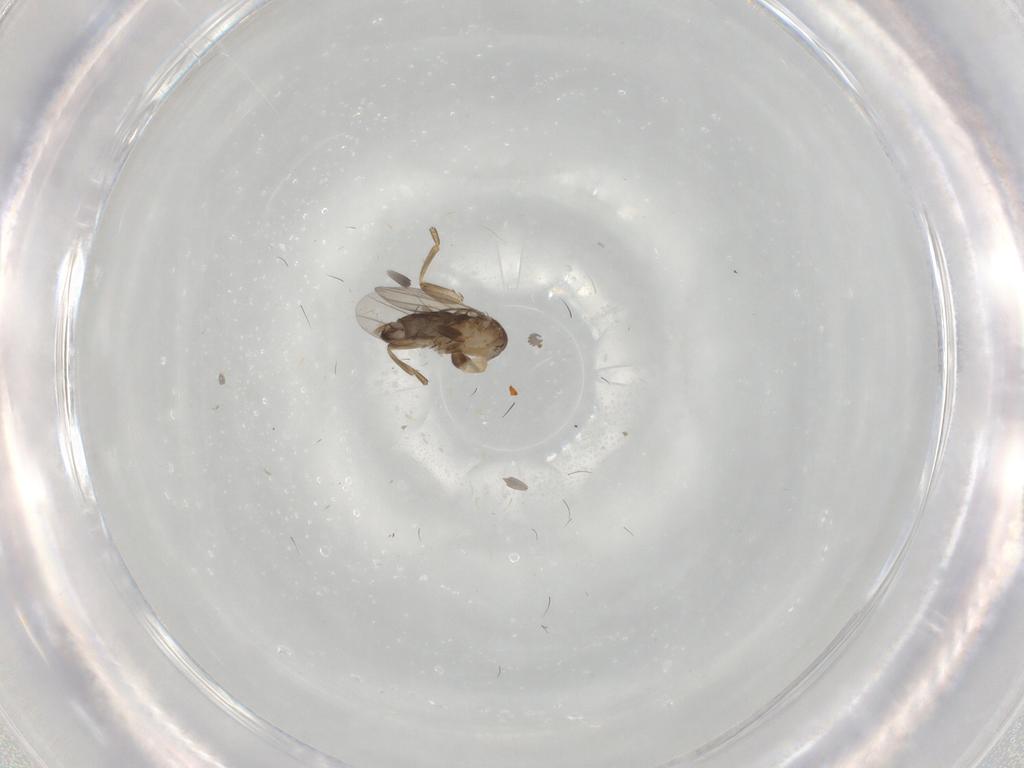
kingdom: Animalia
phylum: Arthropoda
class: Insecta
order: Diptera
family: Phoridae
